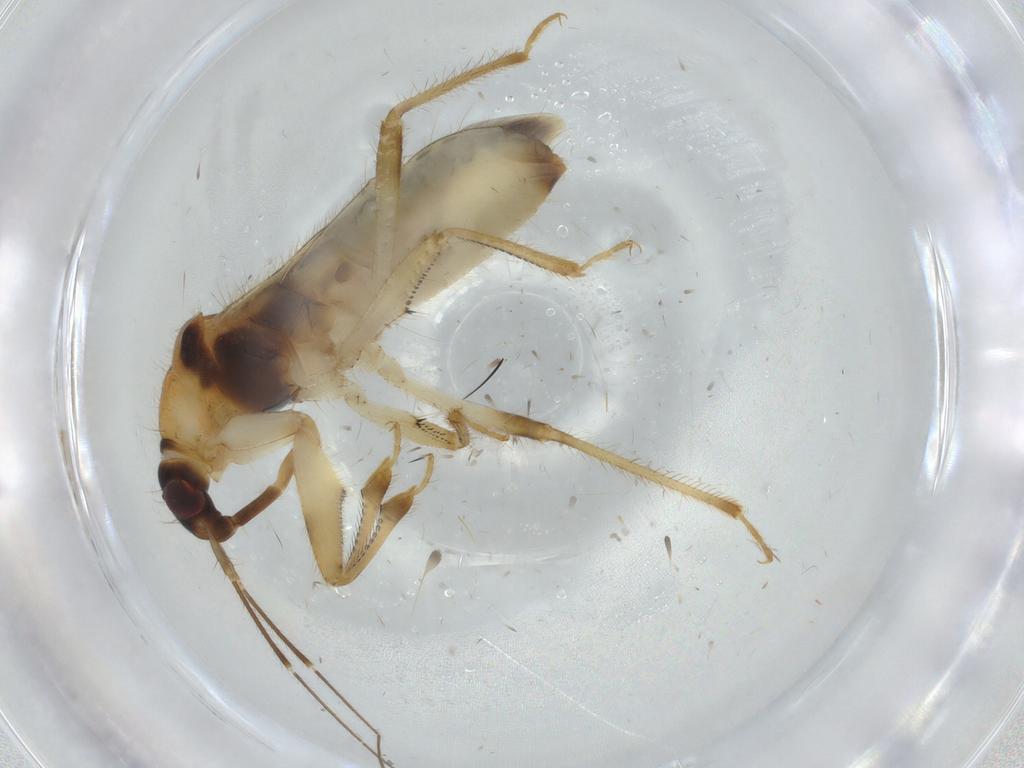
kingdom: Animalia
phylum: Arthropoda
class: Insecta
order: Hemiptera
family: Nabidae
